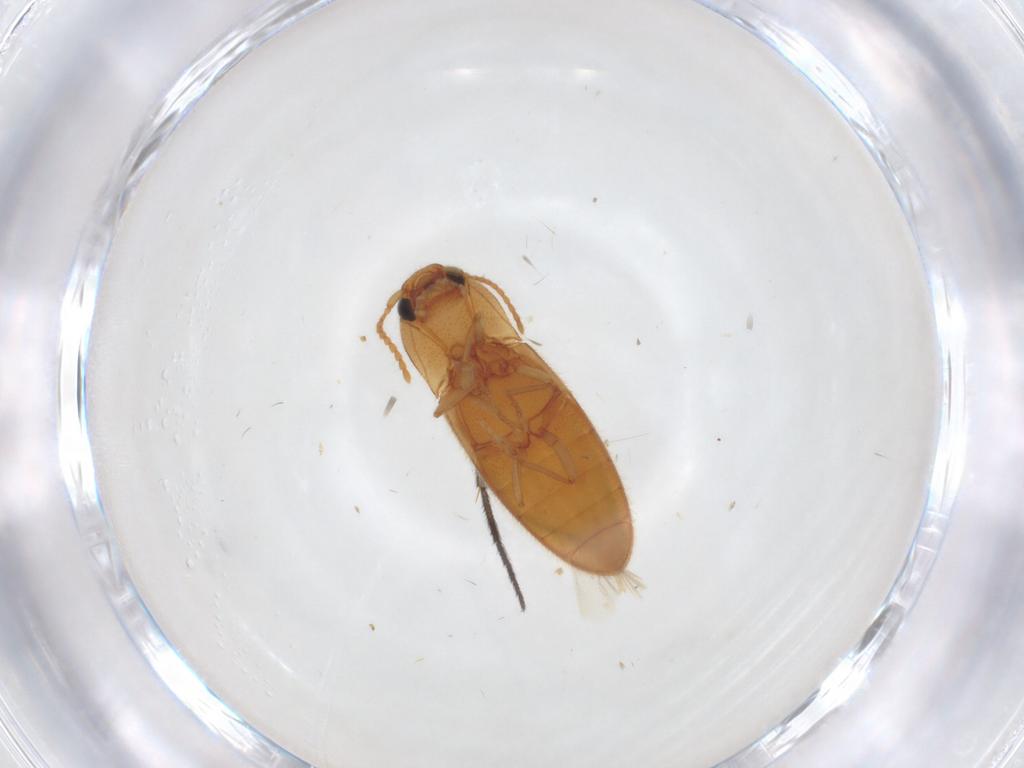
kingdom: Animalia
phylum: Arthropoda
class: Insecta
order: Coleoptera
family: Elateridae
